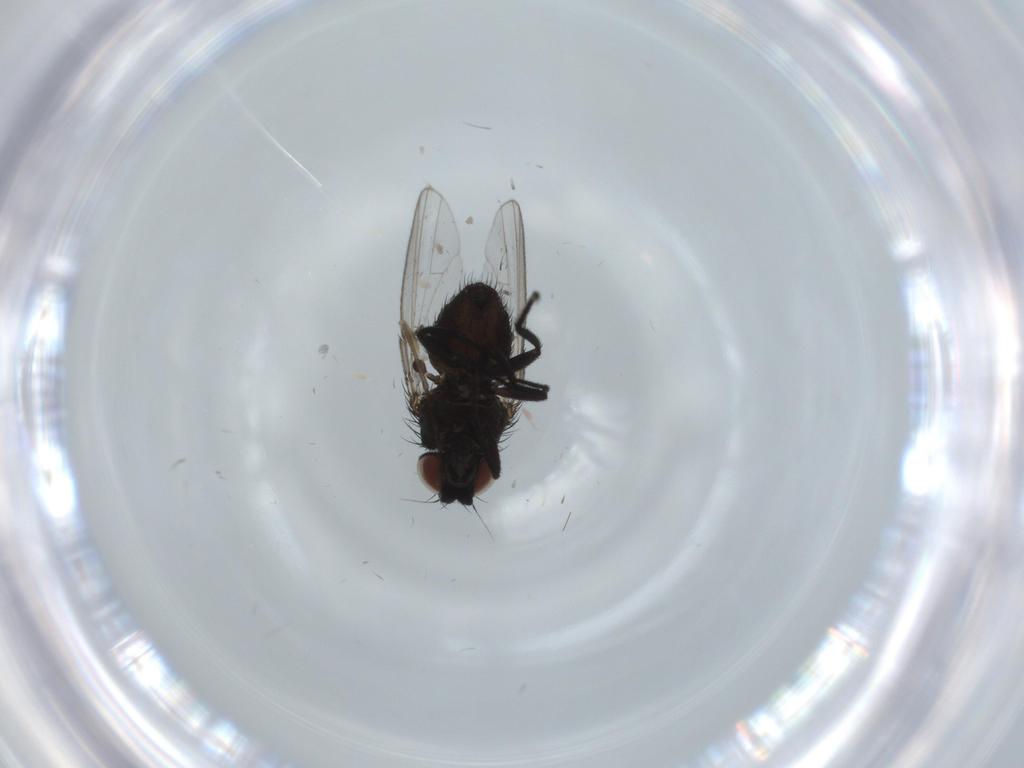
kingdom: Animalia
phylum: Arthropoda
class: Insecta
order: Diptera
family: Sciaridae
